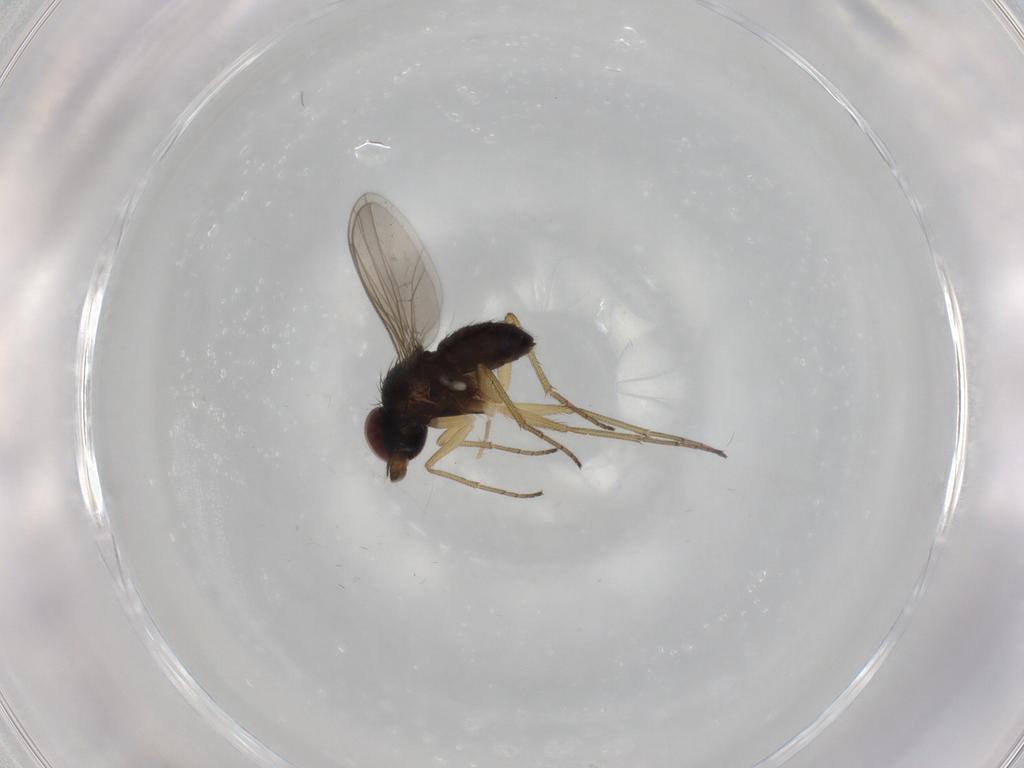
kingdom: Animalia
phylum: Arthropoda
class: Insecta
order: Diptera
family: Dolichopodidae
